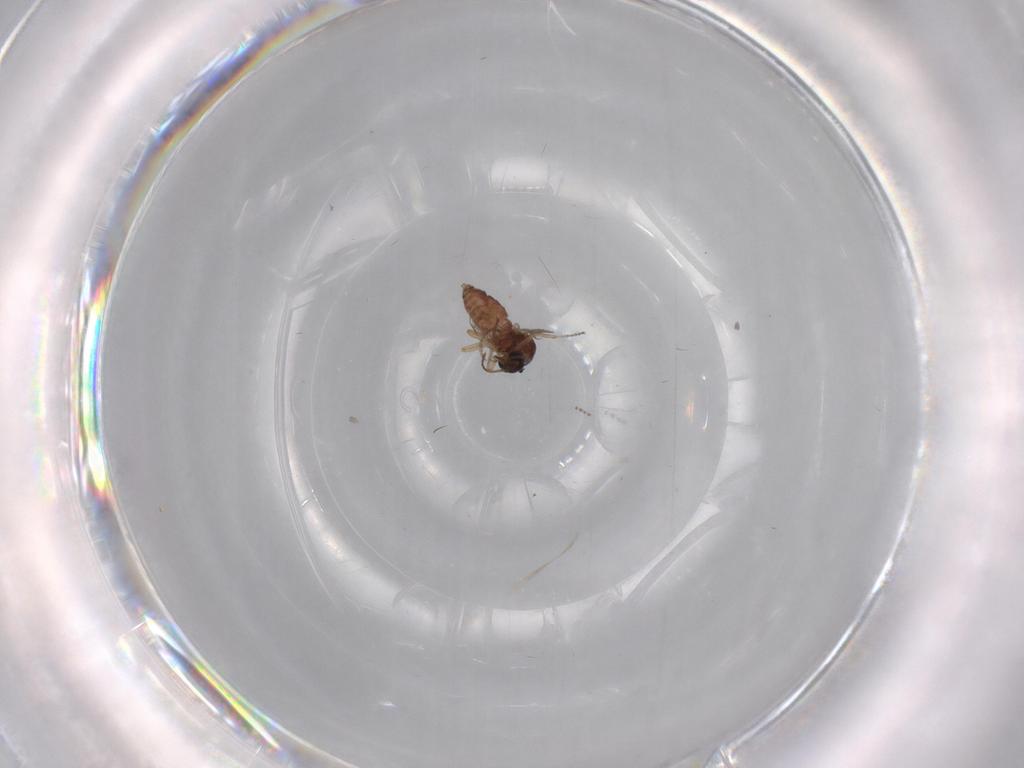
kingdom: Animalia
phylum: Arthropoda
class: Insecta
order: Diptera
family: Ceratopogonidae
